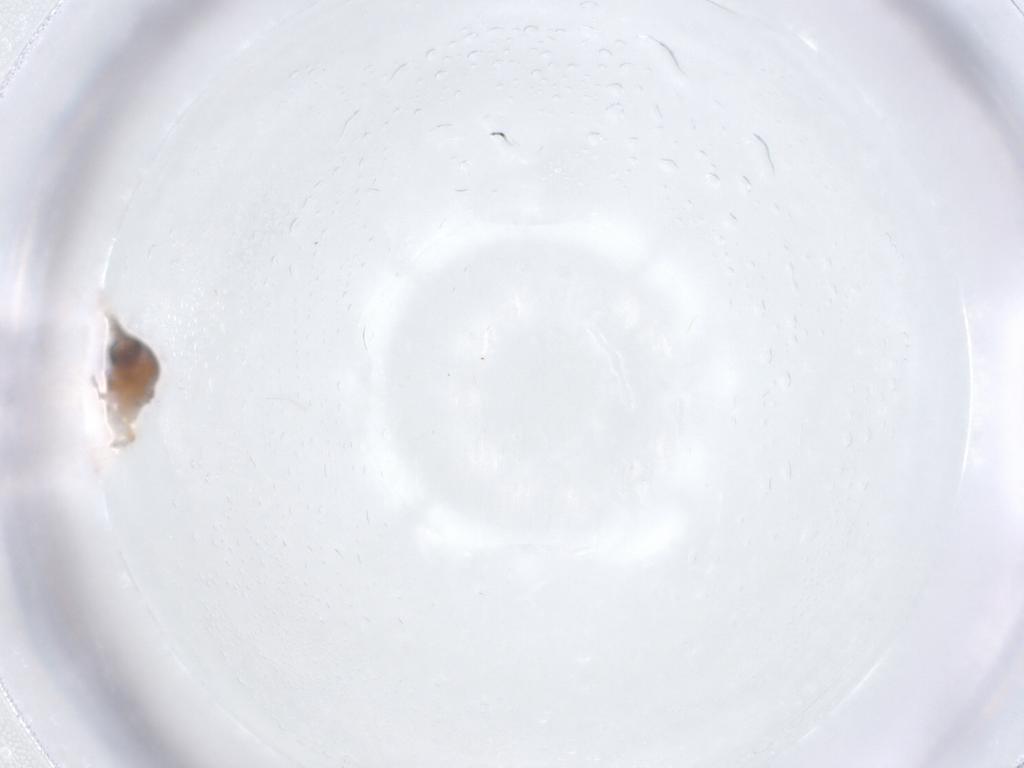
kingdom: Animalia
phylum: Arthropoda
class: Insecta
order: Diptera
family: Ceratopogonidae
